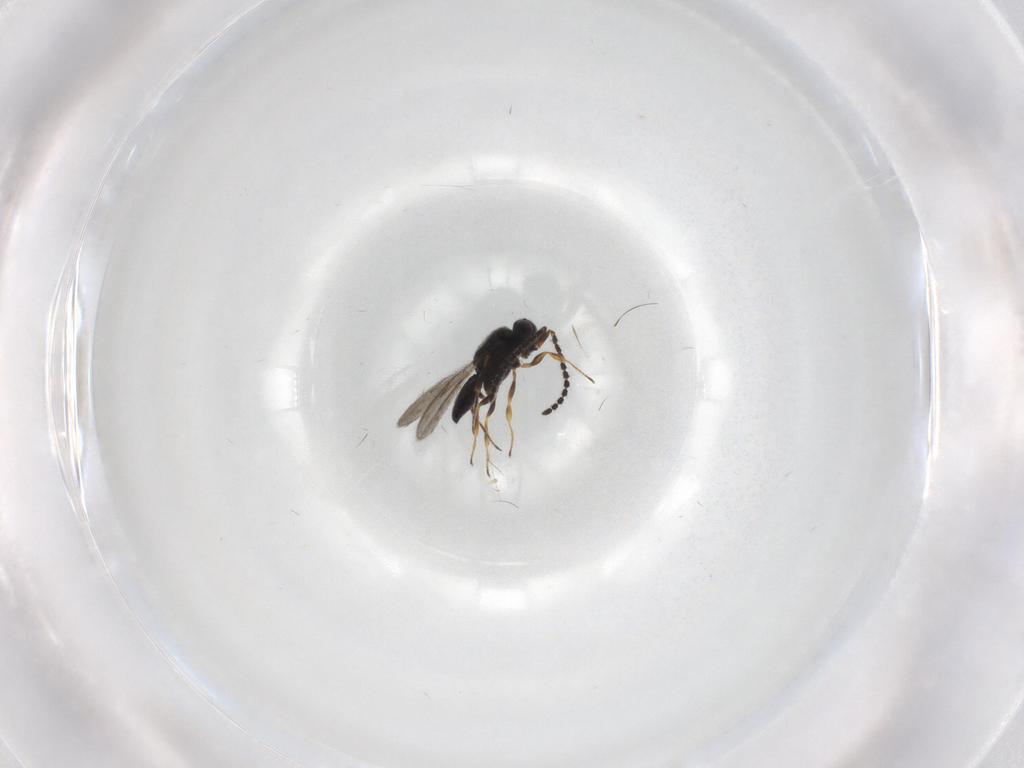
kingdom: Animalia
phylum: Arthropoda
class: Insecta
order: Hymenoptera
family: Scelionidae
